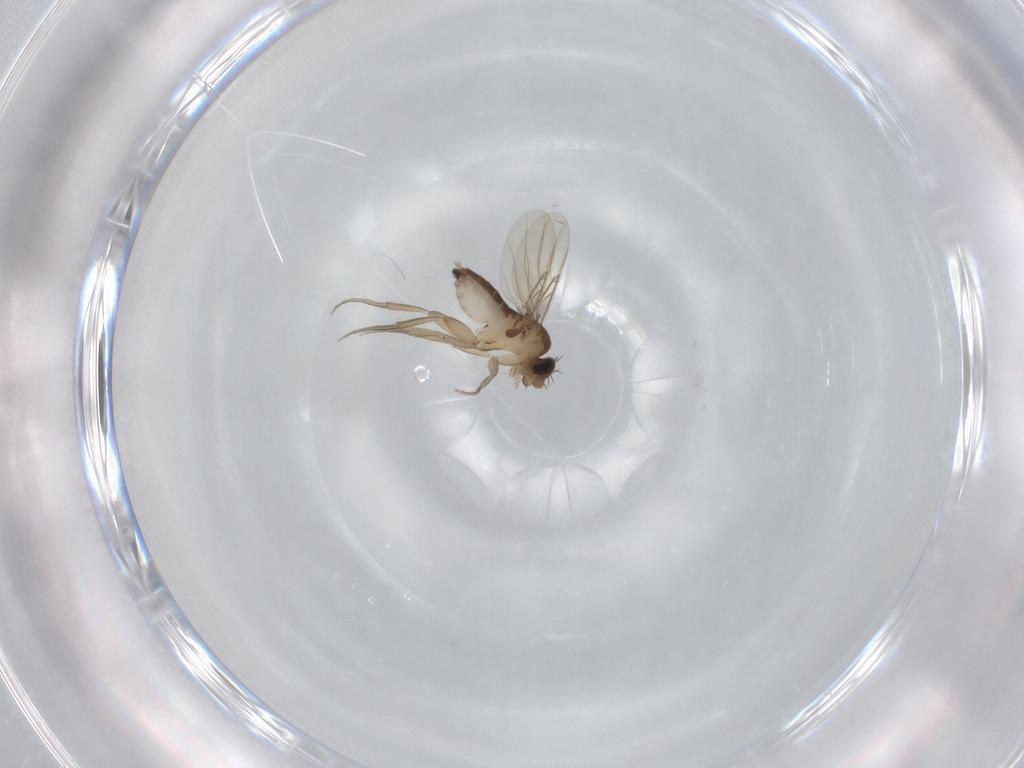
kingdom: Animalia
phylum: Arthropoda
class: Insecta
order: Diptera
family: Phoridae
